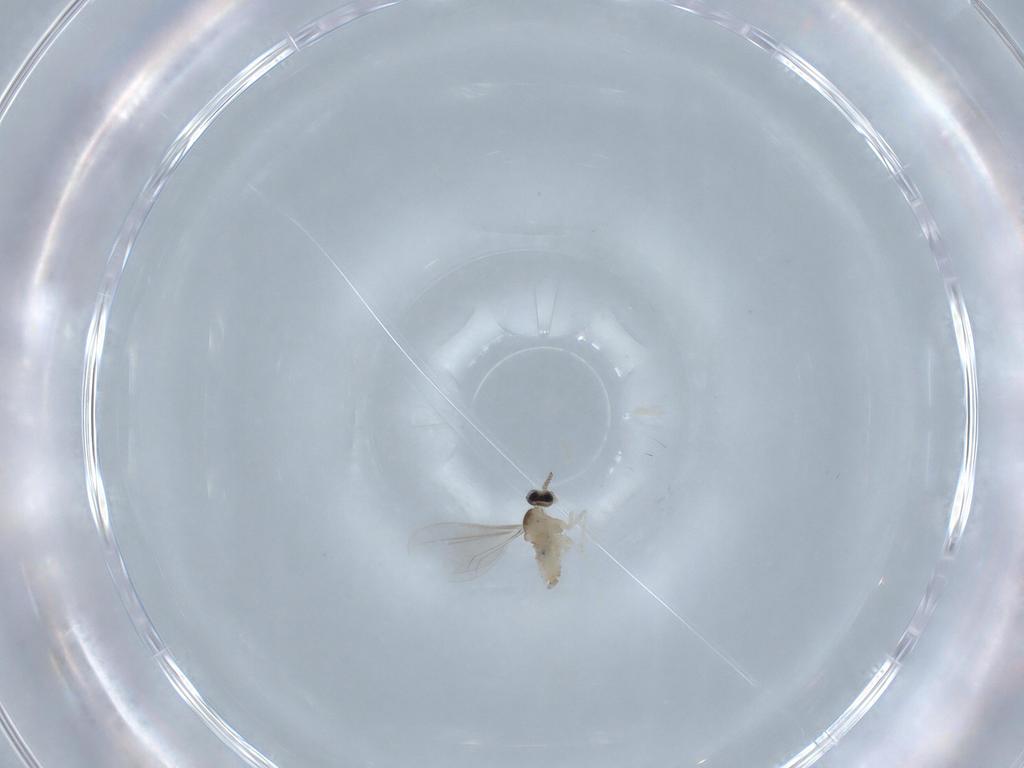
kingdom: Animalia
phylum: Arthropoda
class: Insecta
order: Diptera
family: Cecidomyiidae
